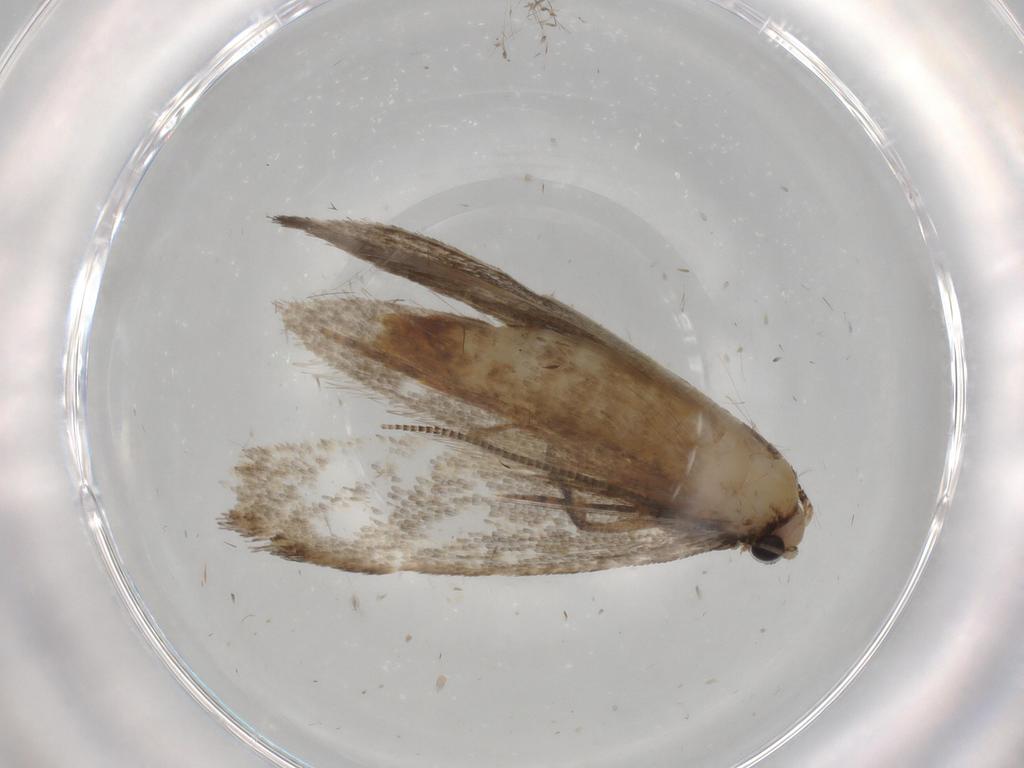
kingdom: Animalia
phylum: Arthropoda
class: Insecta
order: Lepidoptera
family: Tineidae
